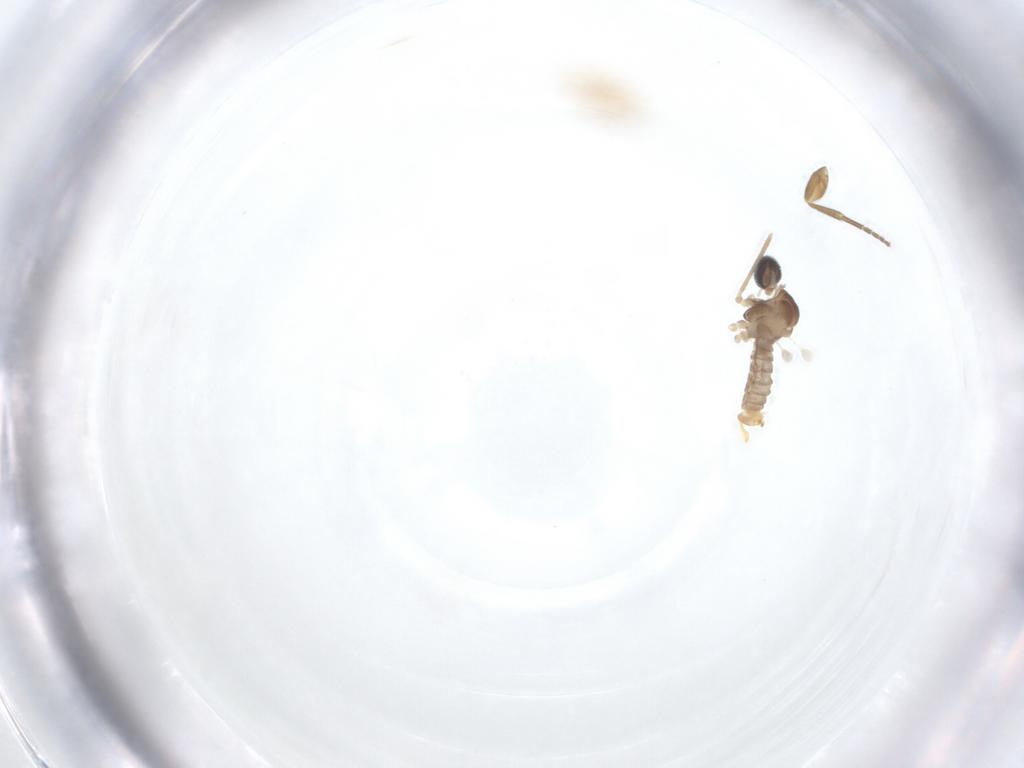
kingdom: Animalia
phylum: Arthropoda
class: Insecta
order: Diptera
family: Cecidomyiidae
